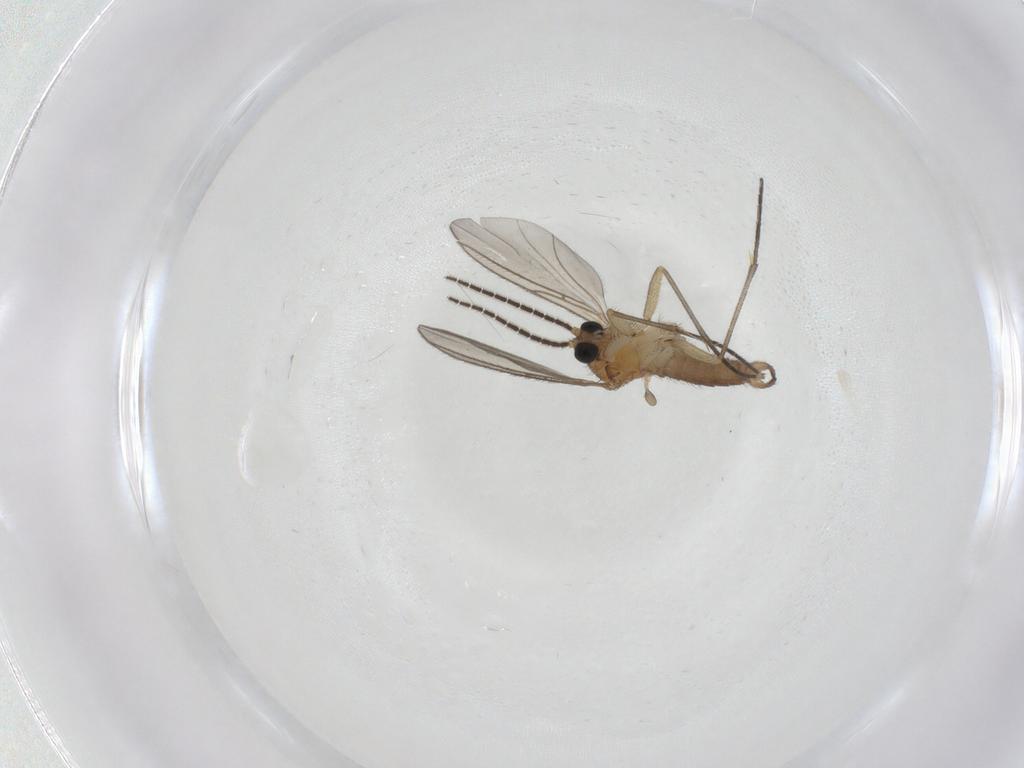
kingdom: Animalia
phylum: Arthropoda
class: Insecta
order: Diptera
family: Sciaridae
